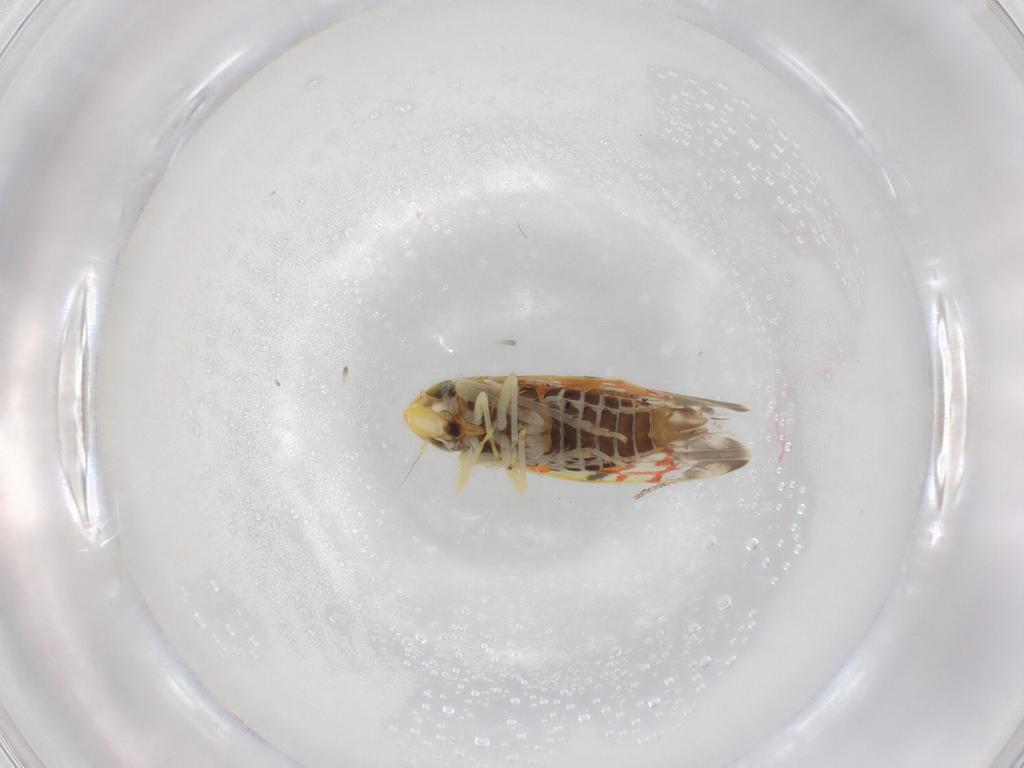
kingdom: Animalia
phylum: Arthropoda
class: Insecta
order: Hemiptera
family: Cicadellidae
